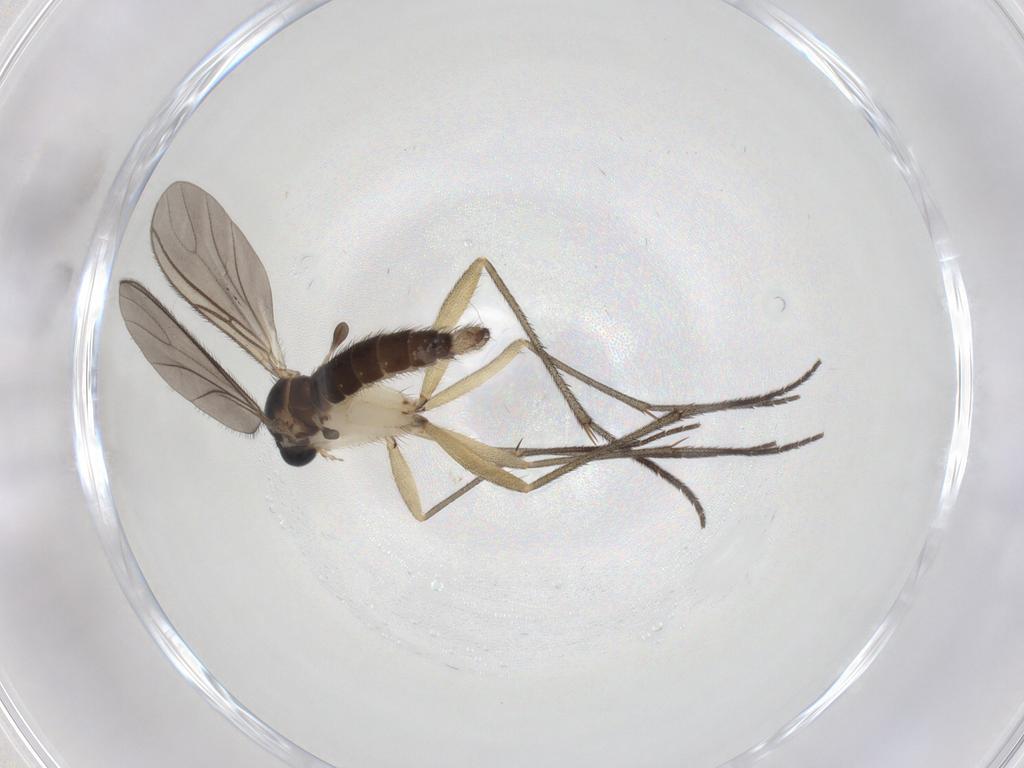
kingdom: Animalia
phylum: Arthropoda
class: Insecta
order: Diptera
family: Sciaridae
